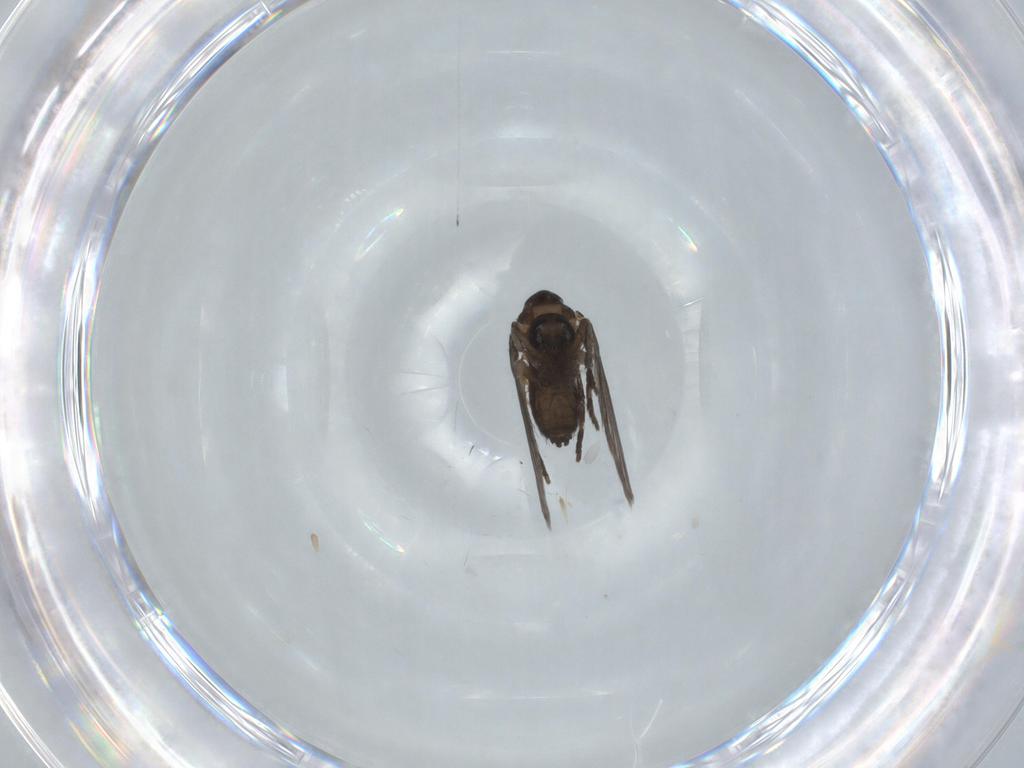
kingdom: Animalia
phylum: Arthropoda
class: Insecta
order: Diptera
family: Psychodidae
